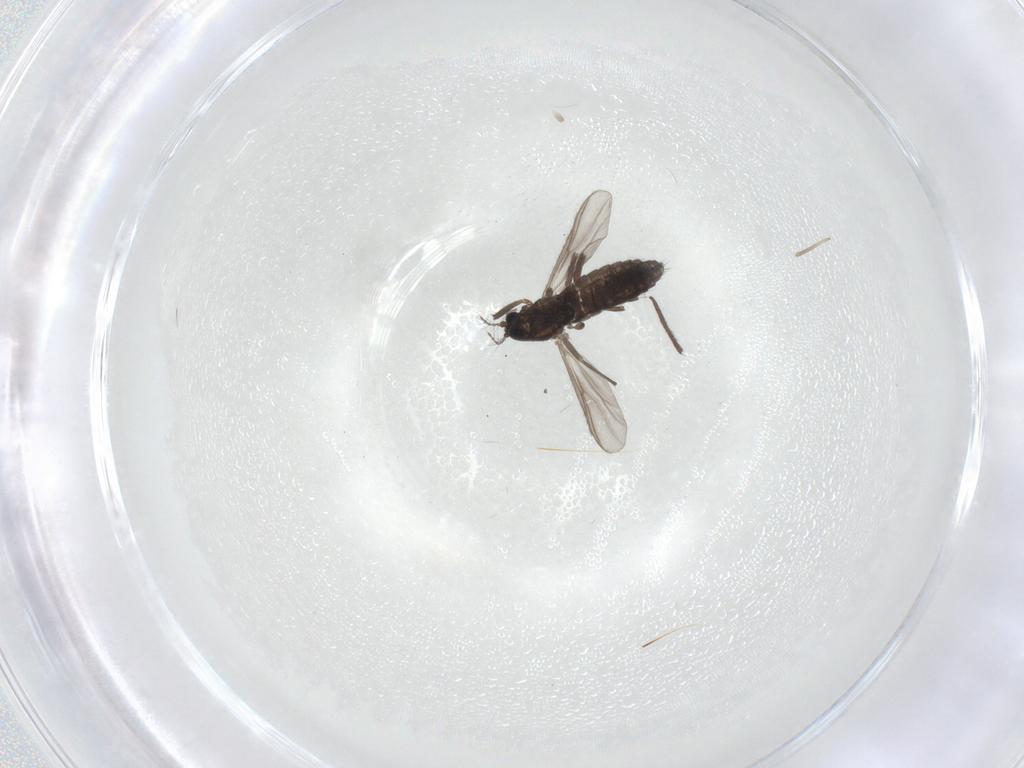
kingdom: Animalia
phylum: Arthropoda
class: Insecta
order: Diptera
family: Chironomidae
